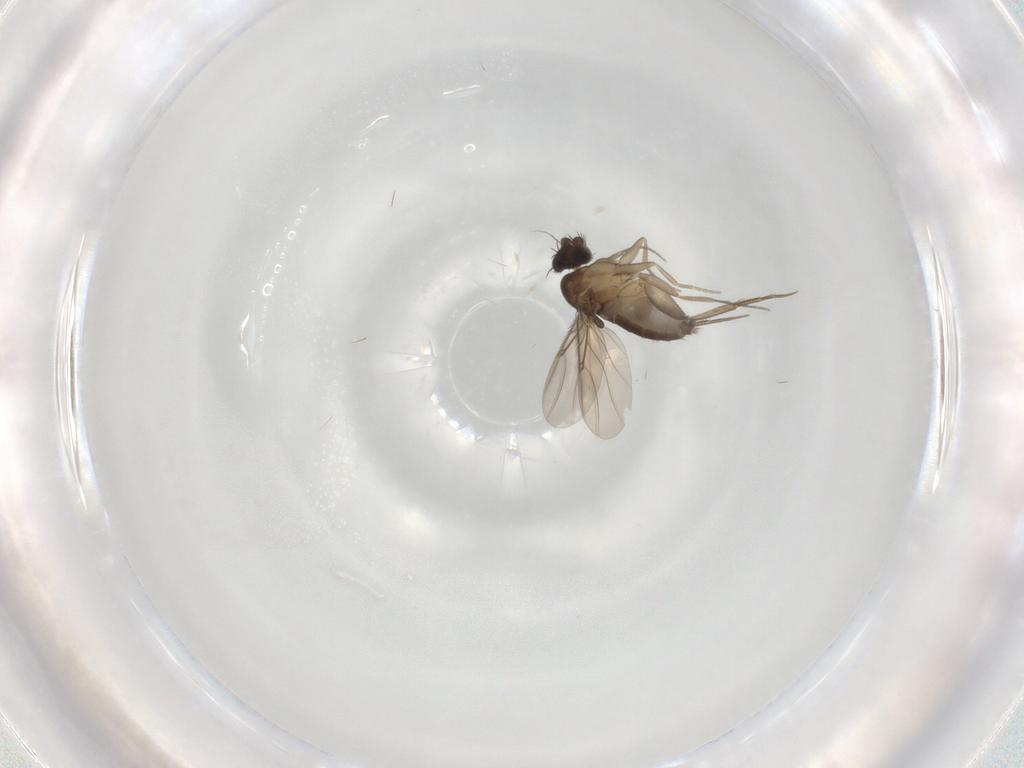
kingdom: Animalia
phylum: Arthropoda
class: Insecta
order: Diptera
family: Phoridae
